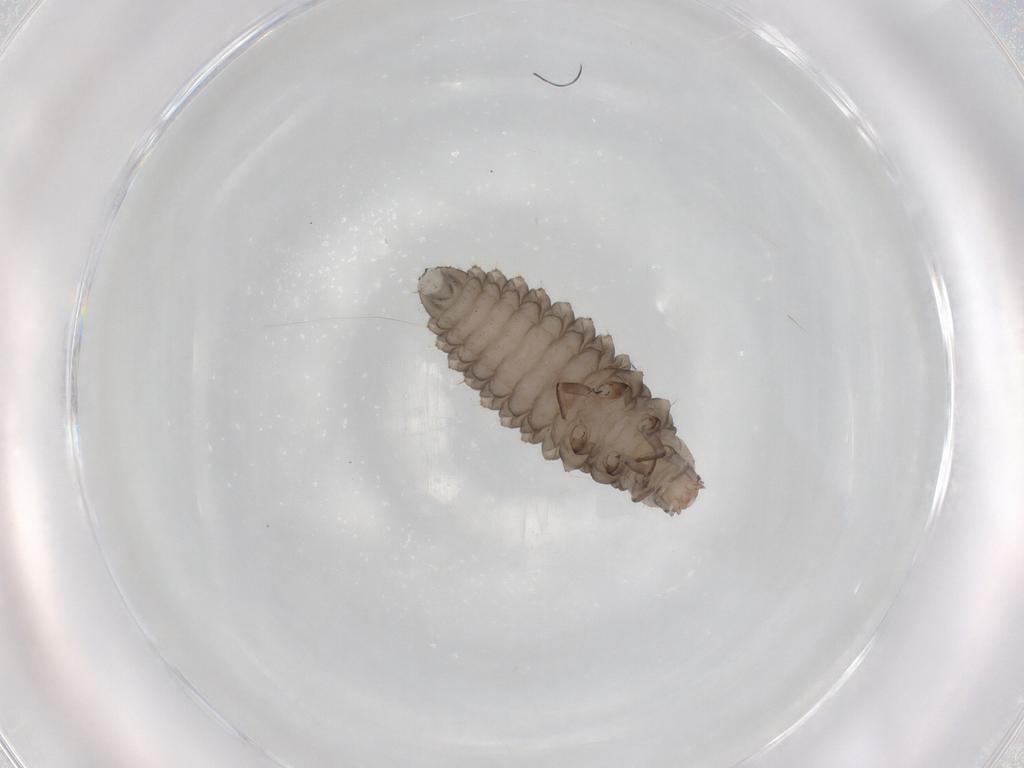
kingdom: Animalia
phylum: Arthropoda
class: Insecta
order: Coleoptera
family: Coccinellidae
